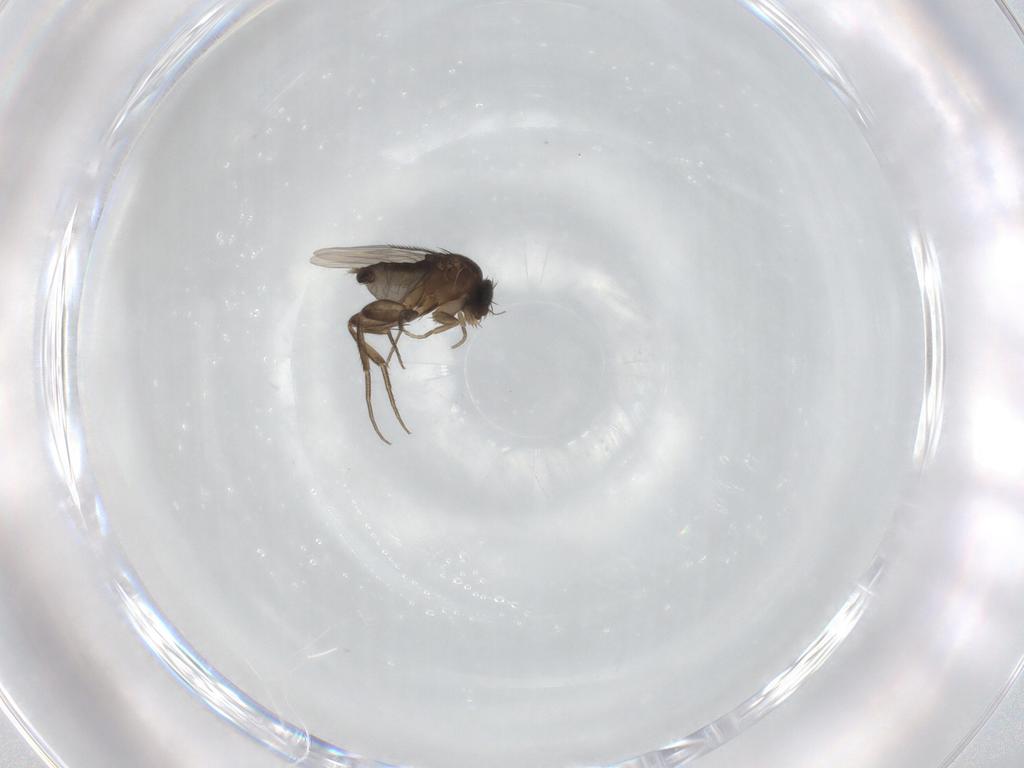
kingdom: Animalia
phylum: Arthropoda
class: Insecta
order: Diptera
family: Phoridae
